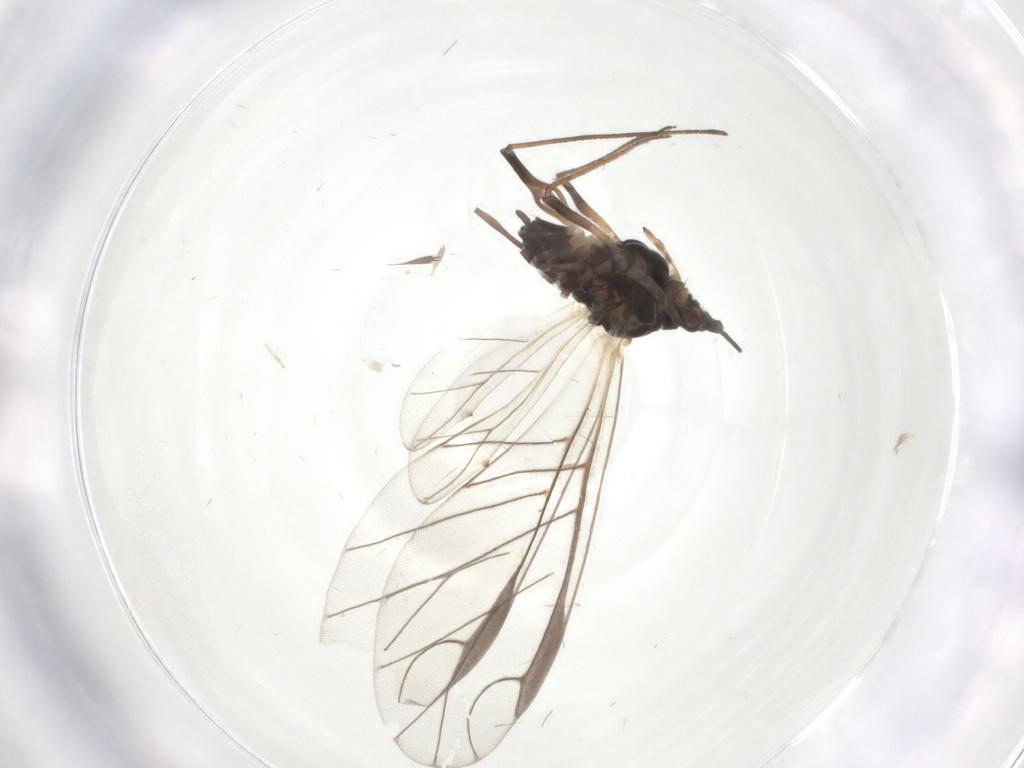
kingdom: Animalia
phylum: Arthropoda
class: Insecta
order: Hemiptera
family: Aphididae
